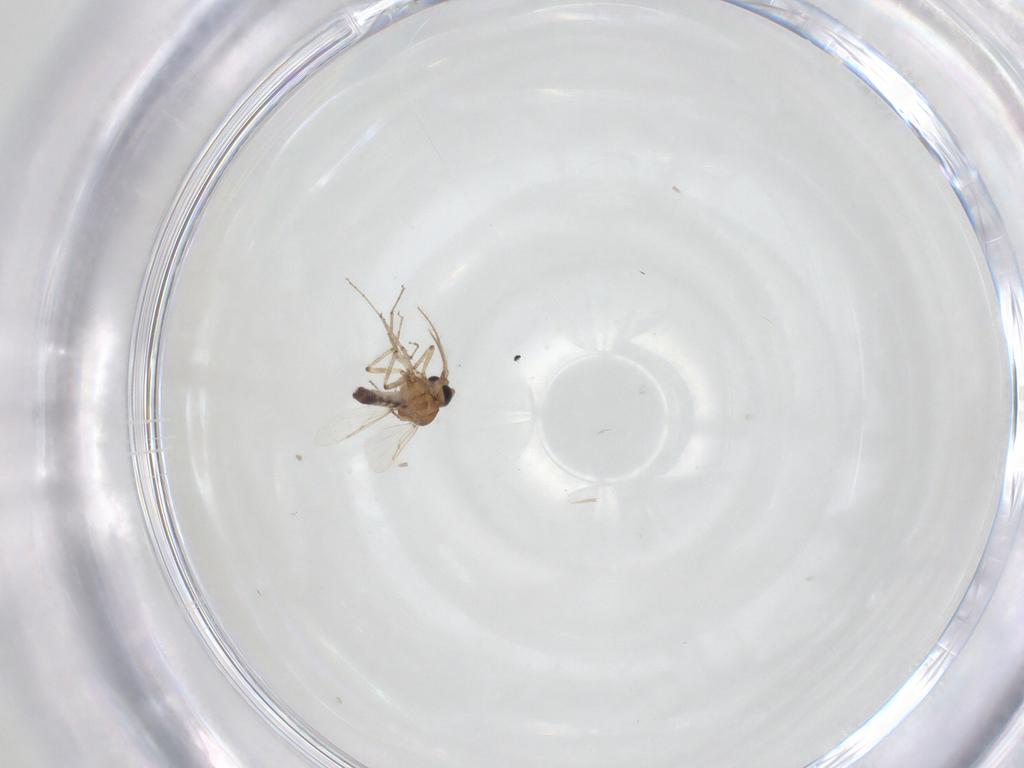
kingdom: Animalia
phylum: Arthropoda
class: Insecta
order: Diptera
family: Ceratopogonidae
